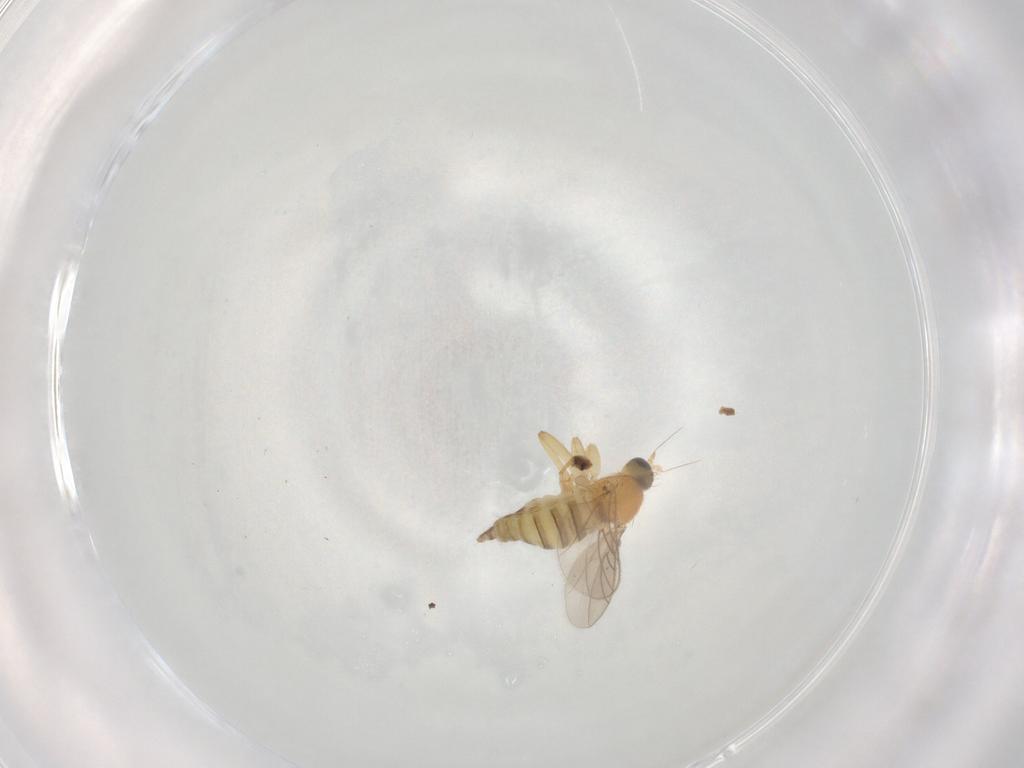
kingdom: Animalia
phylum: Arthropoda
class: Insecta
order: Diptera
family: Hybotidae
